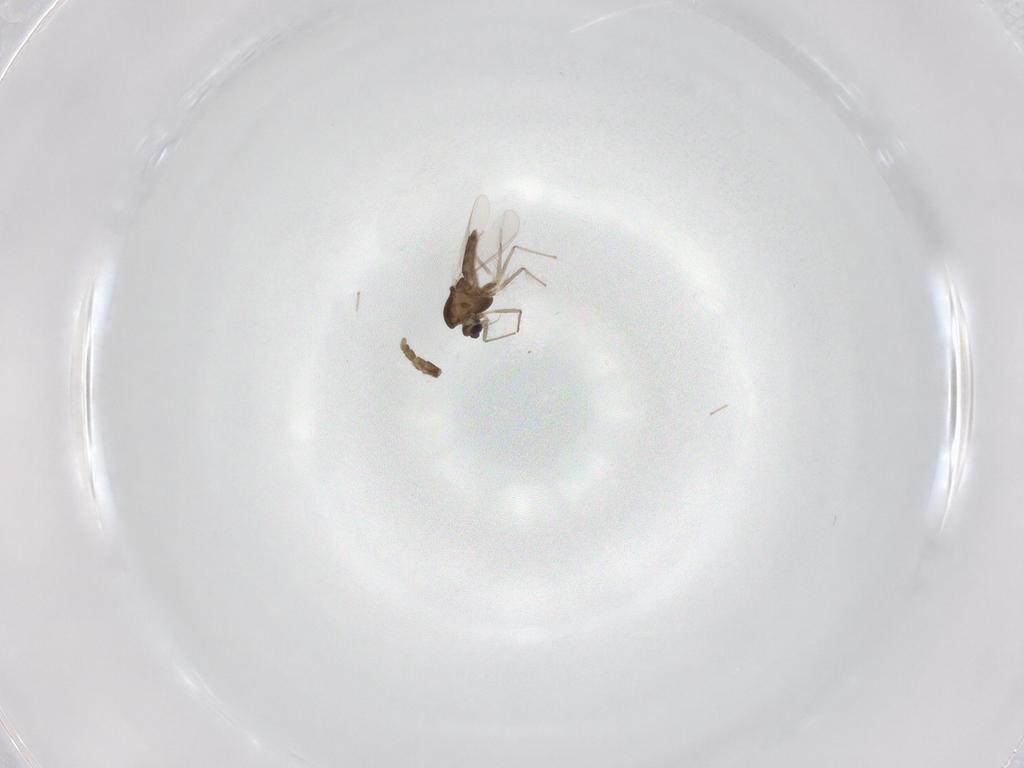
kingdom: Animalia
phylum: Arthropoda
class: Insecta
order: Diptera
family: Chironomidae
